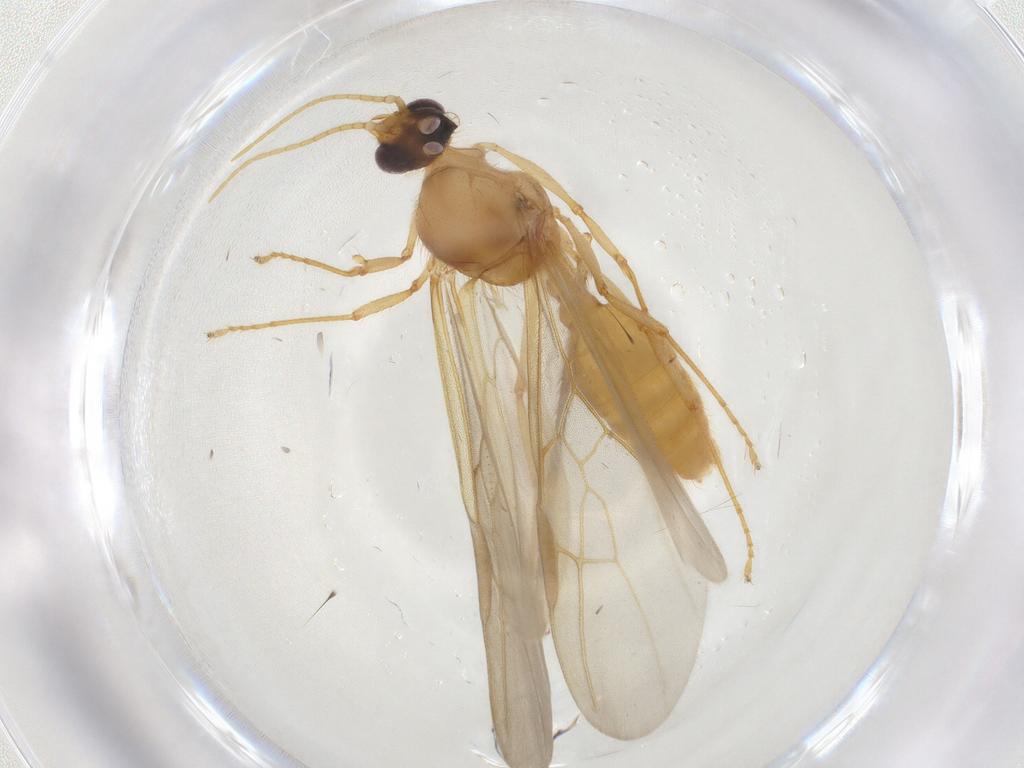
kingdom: Animalia
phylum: Arthropoda
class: Insecta
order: Hymenoptera
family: Formicidae
